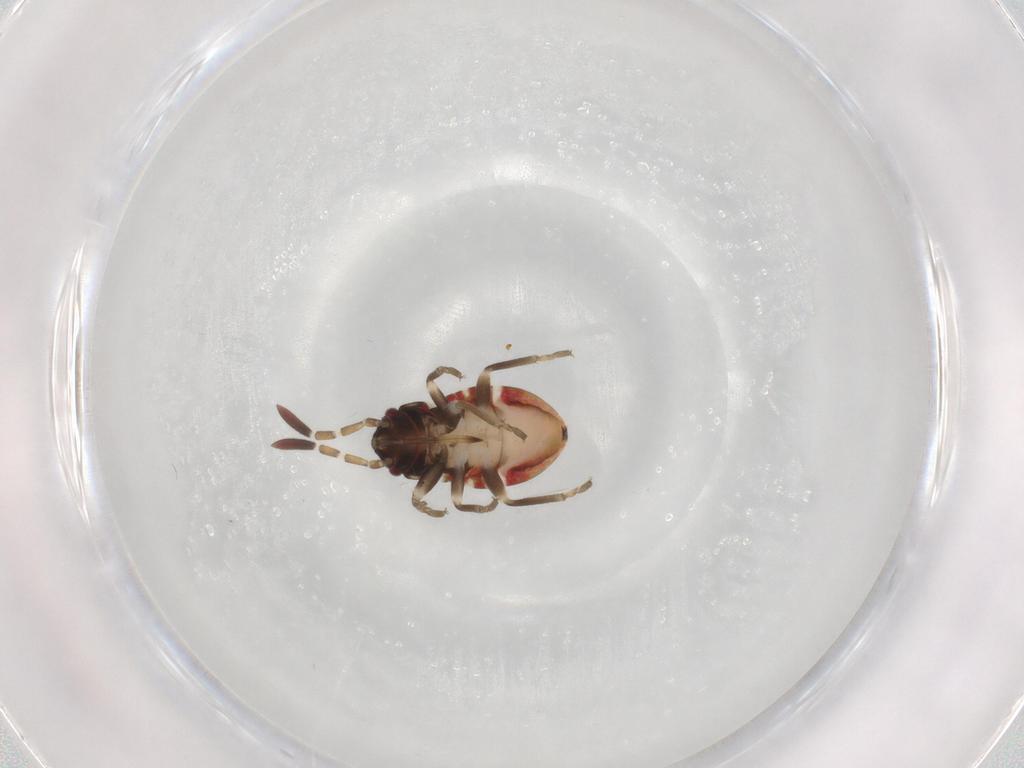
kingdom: Animalia
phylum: Arthropoda
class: Insecta
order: Hemiptera
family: Rhyparochromidae
